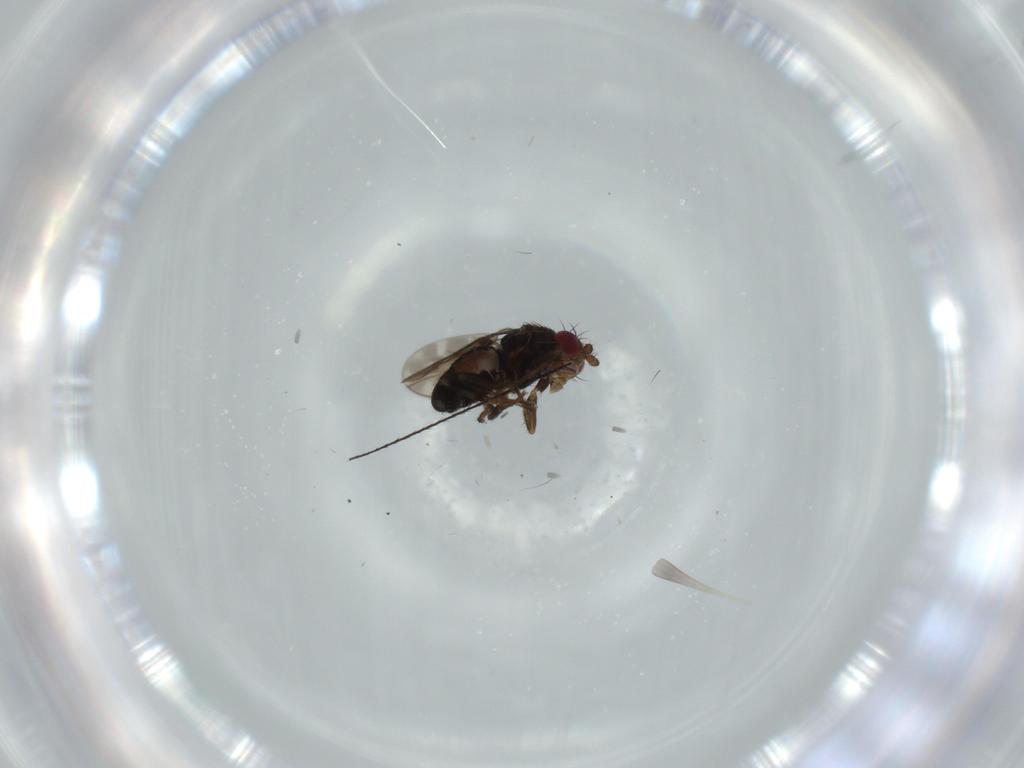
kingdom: Animalia
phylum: Arthropoda
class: Insecta
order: Diptera
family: Sphaeroceridae
